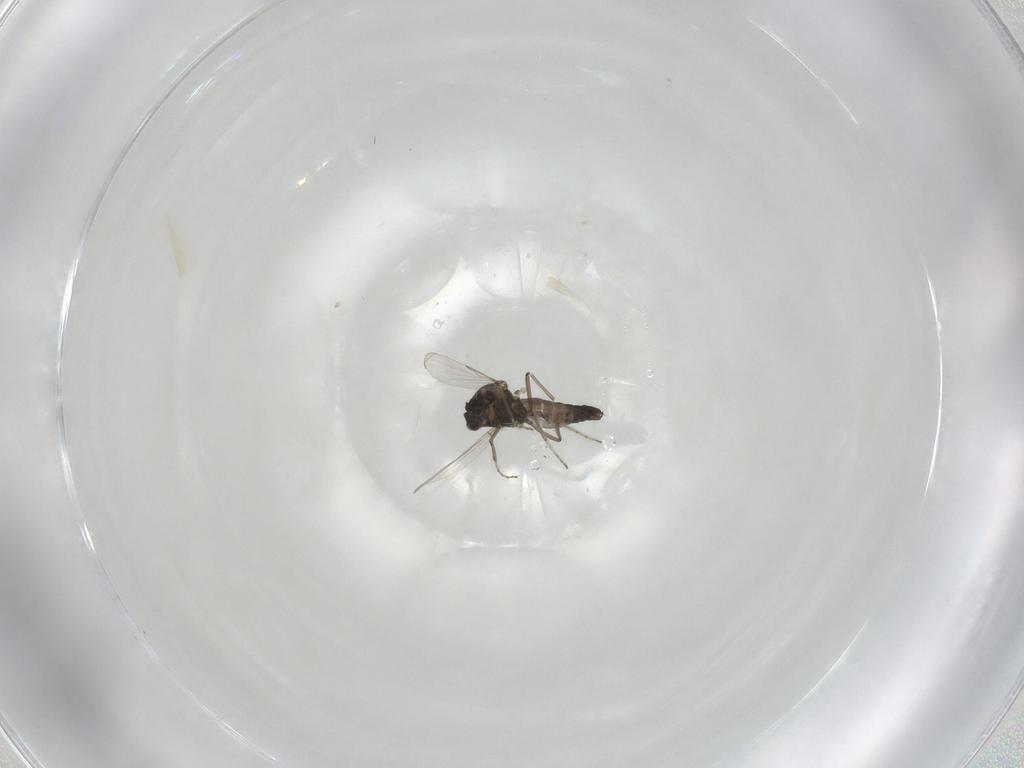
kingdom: Animalia
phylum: Arthropoda
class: Insecta
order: Diptera
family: Ceratopogonidae
